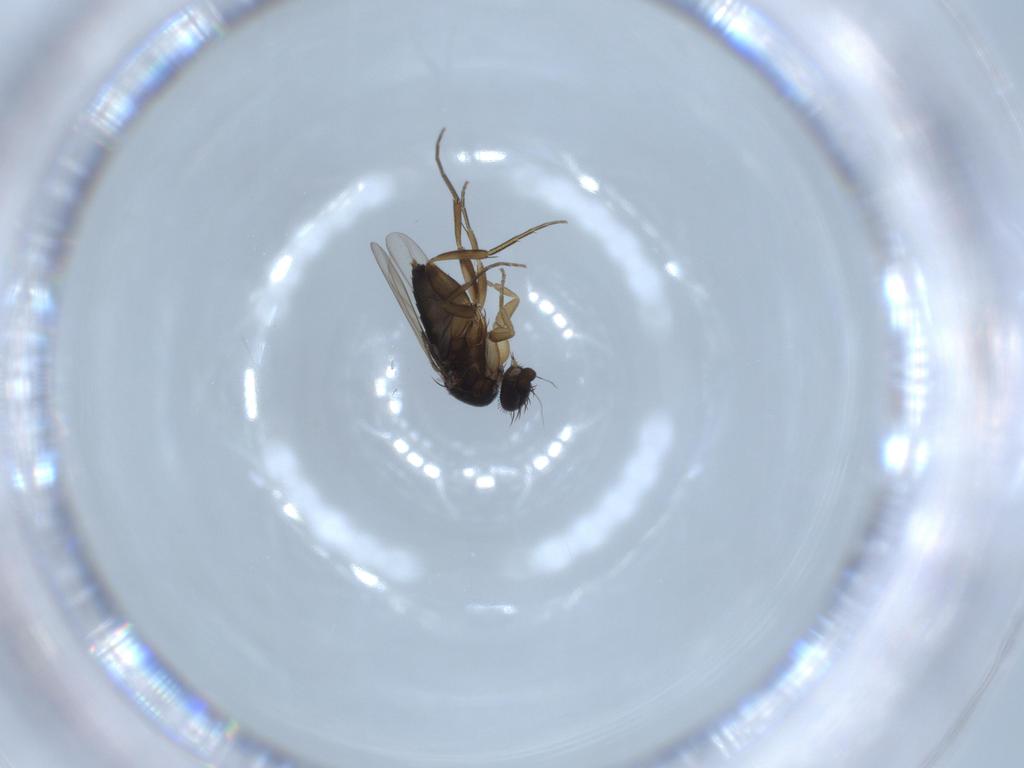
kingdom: Animalia
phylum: Arthropoda
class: Insecta
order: Diptera
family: Phoridae
